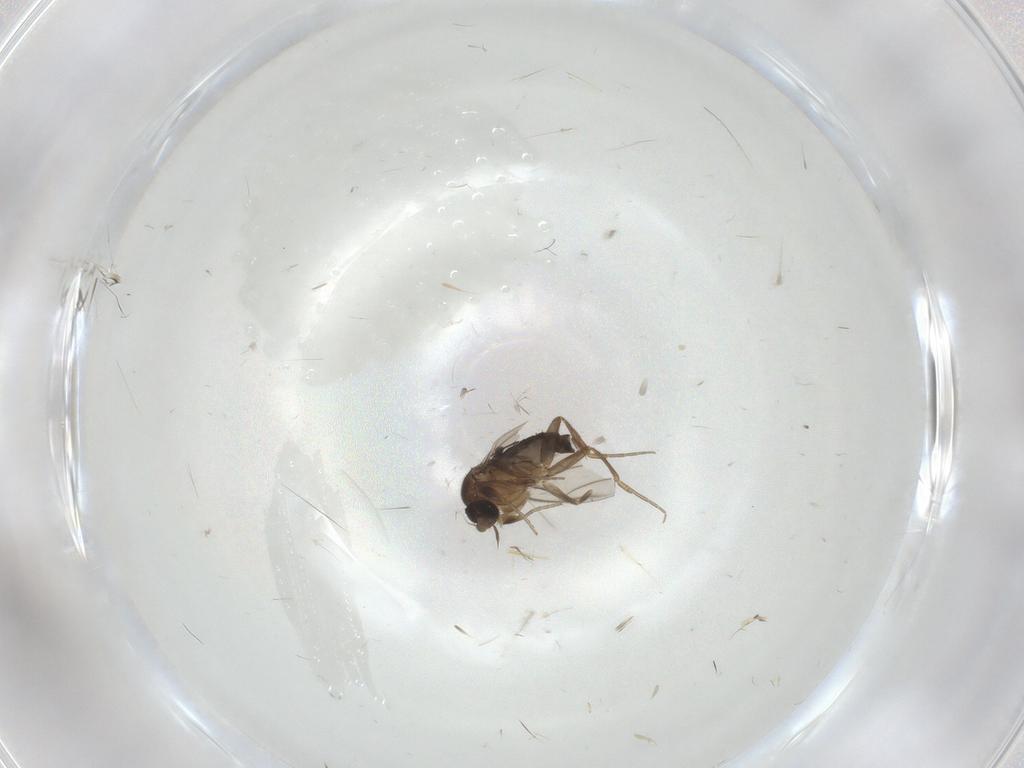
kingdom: Animalia
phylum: Arthropoda
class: Insecta
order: Diptera
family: Phoridae
